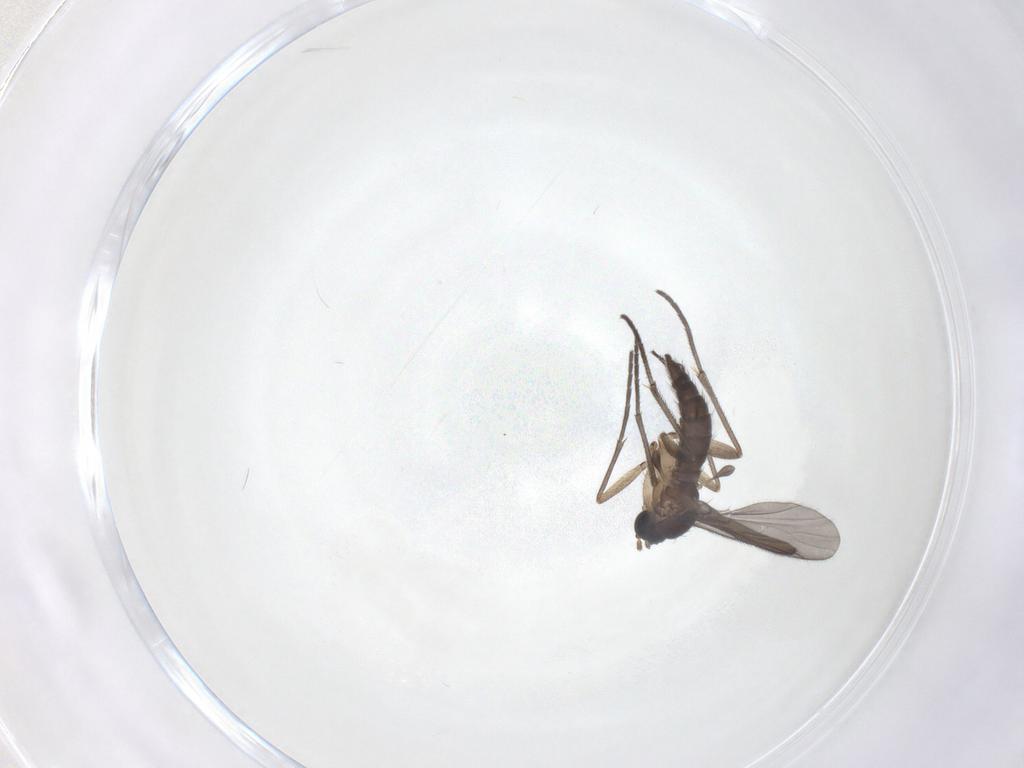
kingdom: Animalia
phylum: Arthropoda
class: Insecta
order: Diptera
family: Sciaridae
